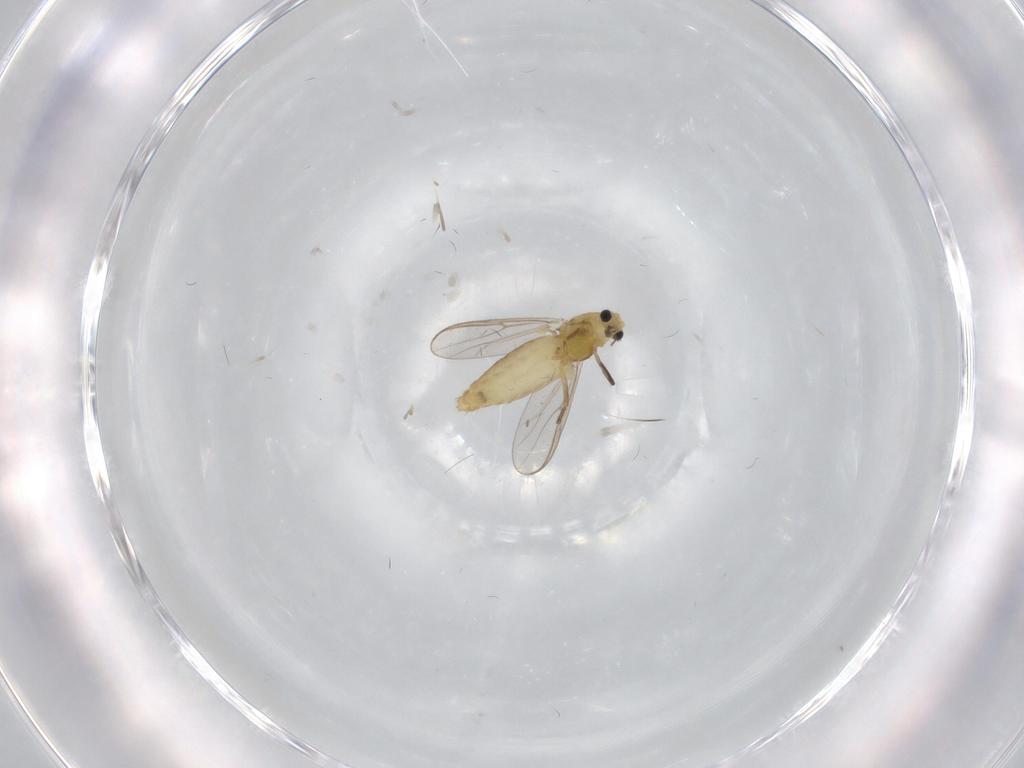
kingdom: Animalia
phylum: Arthropoda
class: Insecta
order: Diptera
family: Chironomidae
